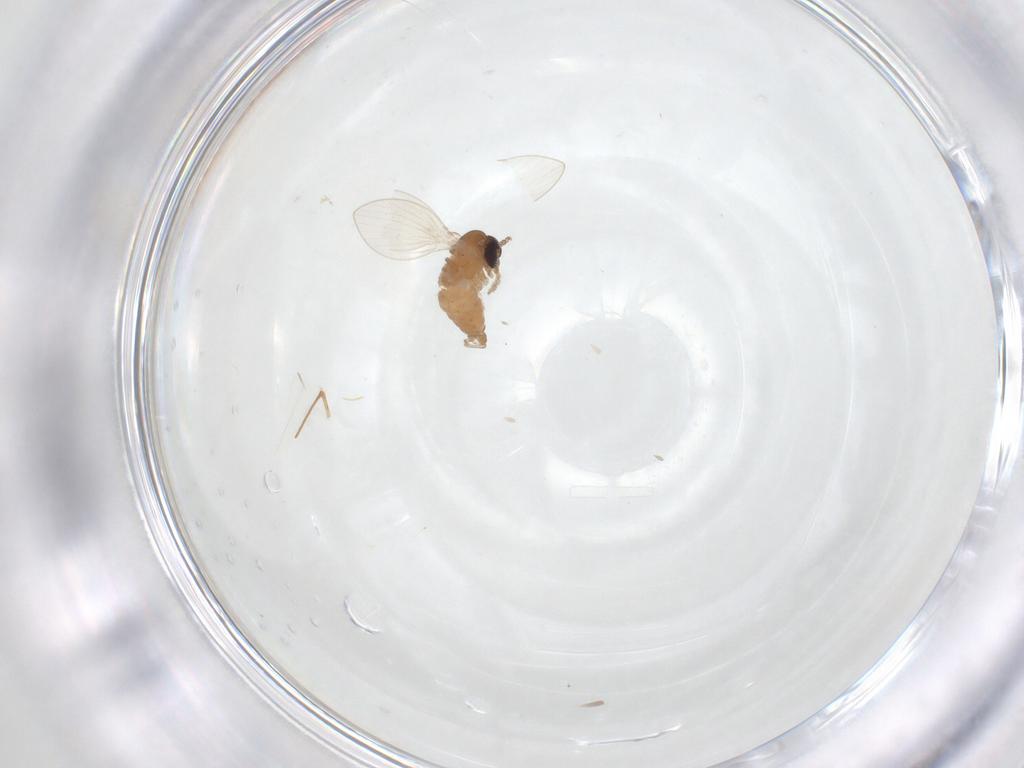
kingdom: Animalia
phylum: Arthropoda
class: Insecta
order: Diptera
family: Psychodidae
